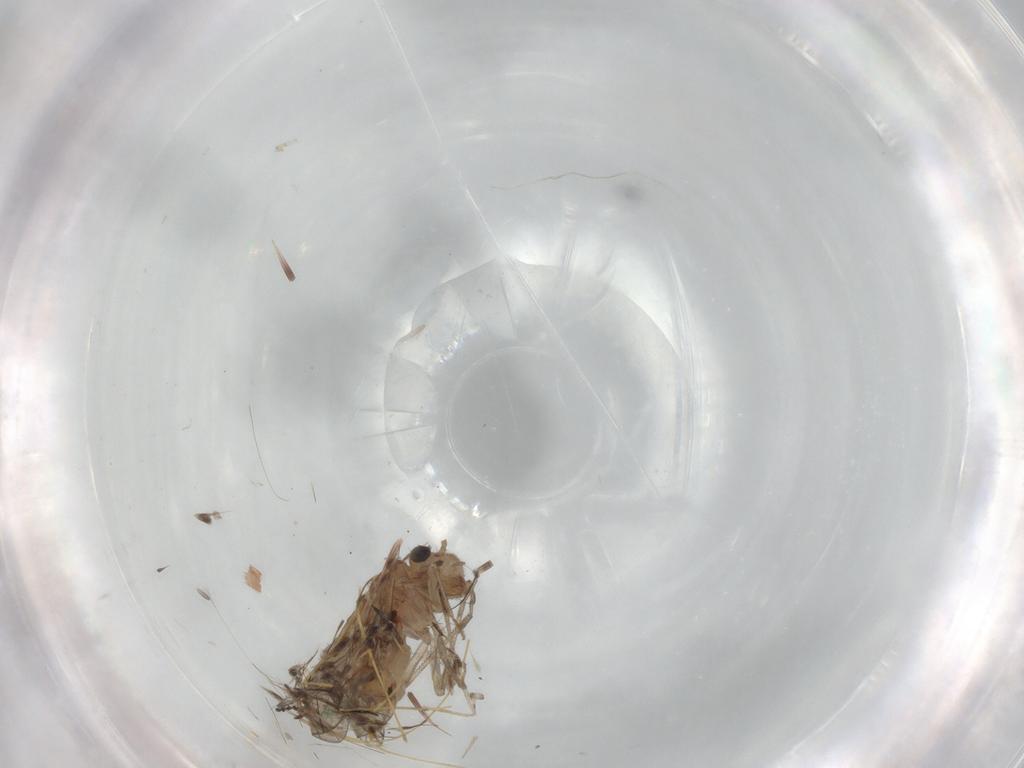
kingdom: Animalia
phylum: Arthropoda
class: Insecta
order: Psocodea
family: Lachesillidae
